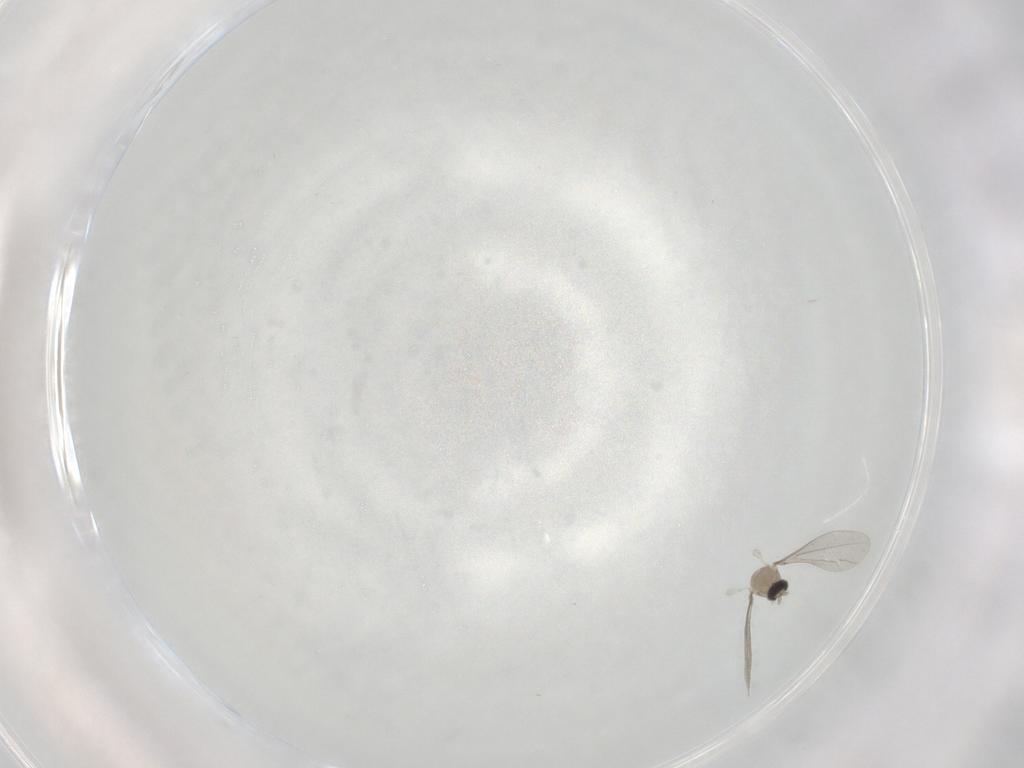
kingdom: Animalia
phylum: Arthropoda
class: Insecta
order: Diptera
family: Cecidomyiidae
